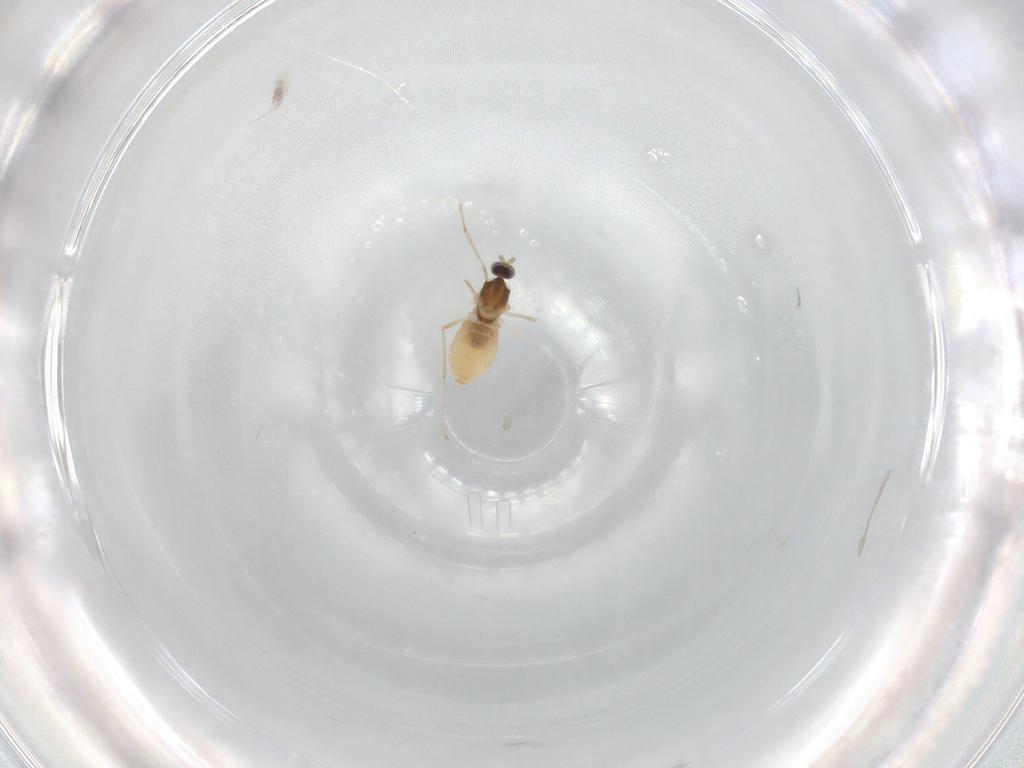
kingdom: Animalia
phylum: Arthropoda
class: Insecta
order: Diptera
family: Cecidomyiidae
